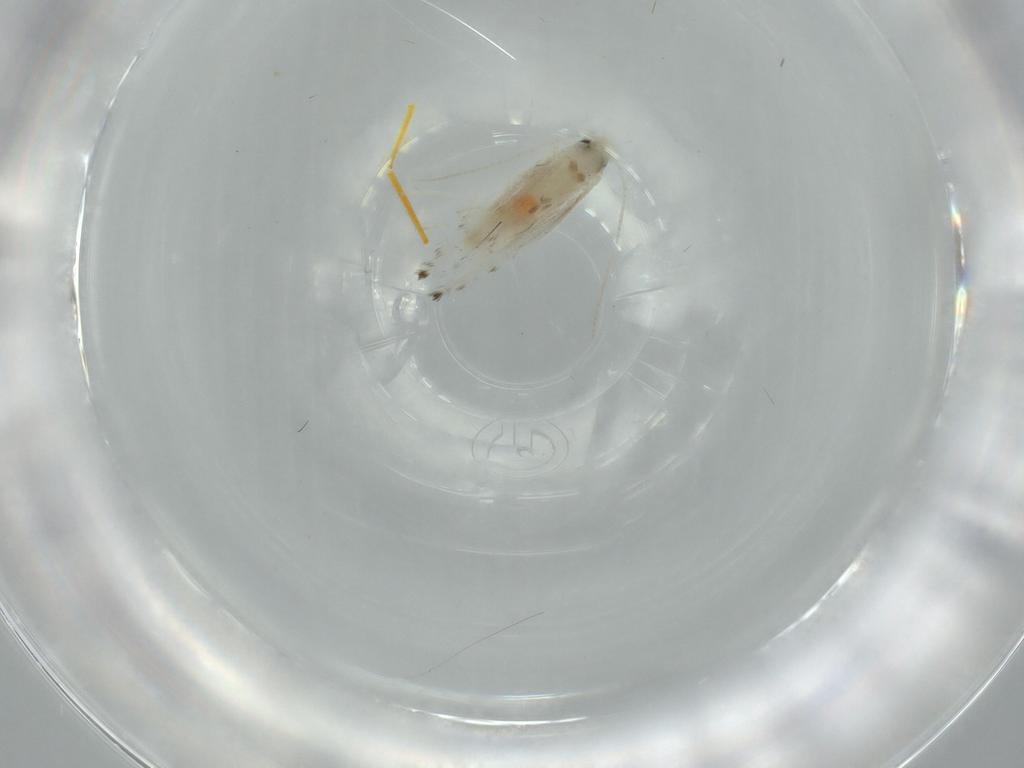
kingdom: Animalia
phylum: Arthropoda
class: Insecta
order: Lepidoptera
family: Gracillariidae
